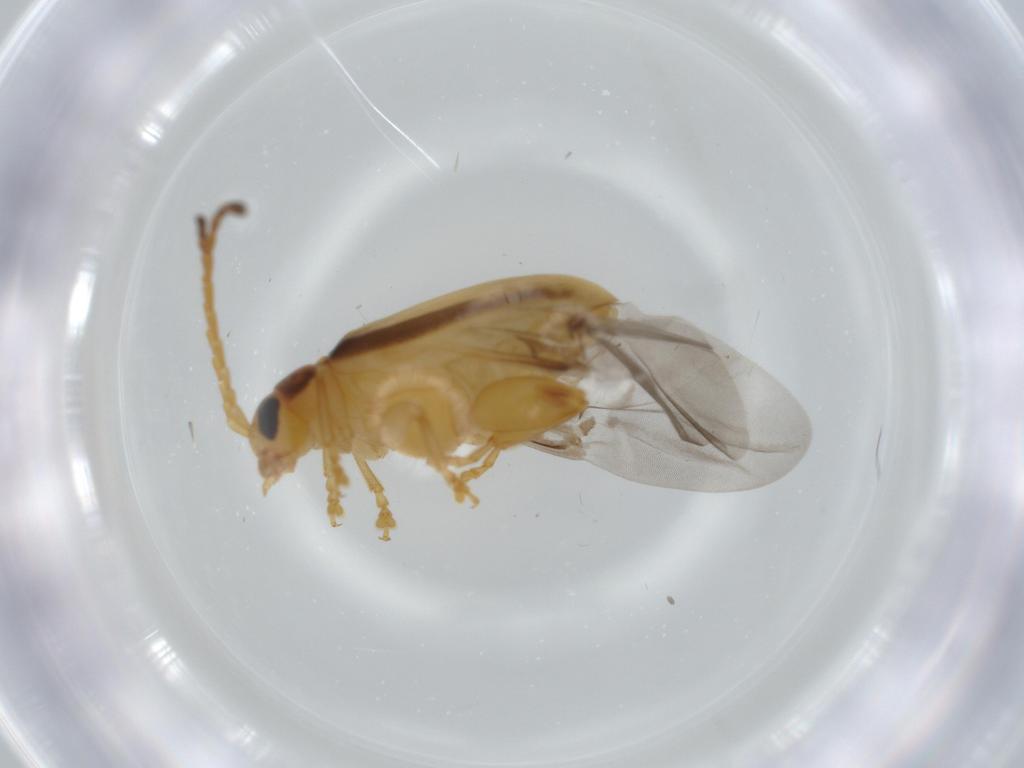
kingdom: Animalia
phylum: Arthropoda
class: Insecta
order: Coleoptera
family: Chrysomelidae
